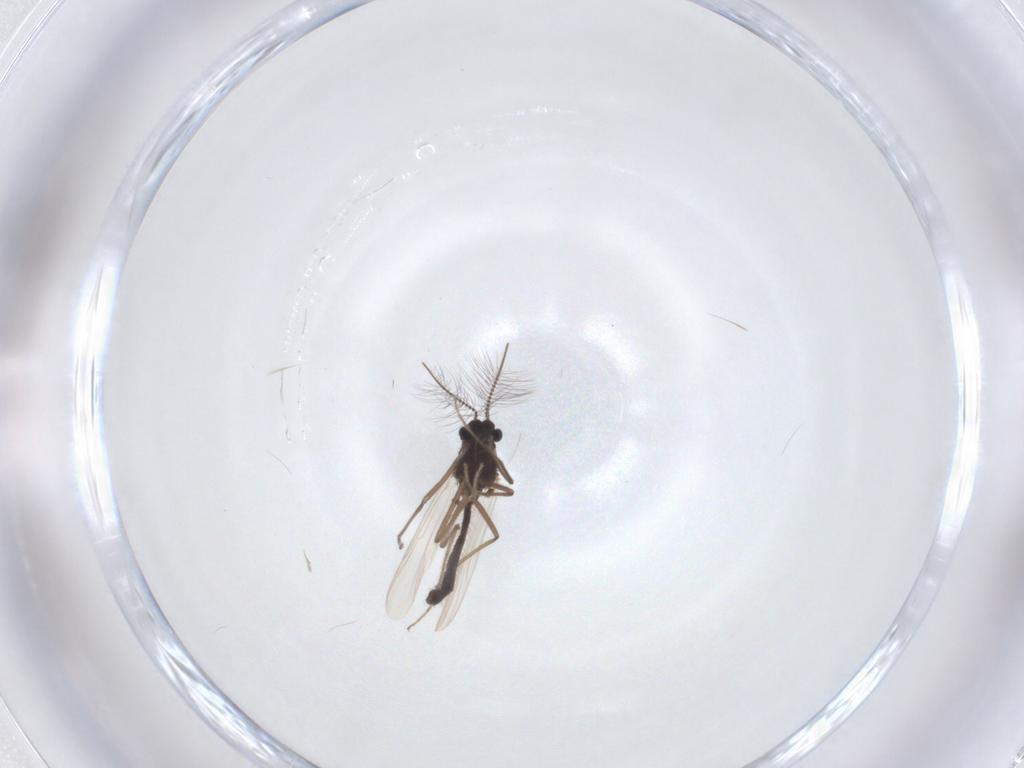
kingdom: Animalia
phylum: Arthropoda
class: Insecta
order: Diptera
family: Chironomidae
